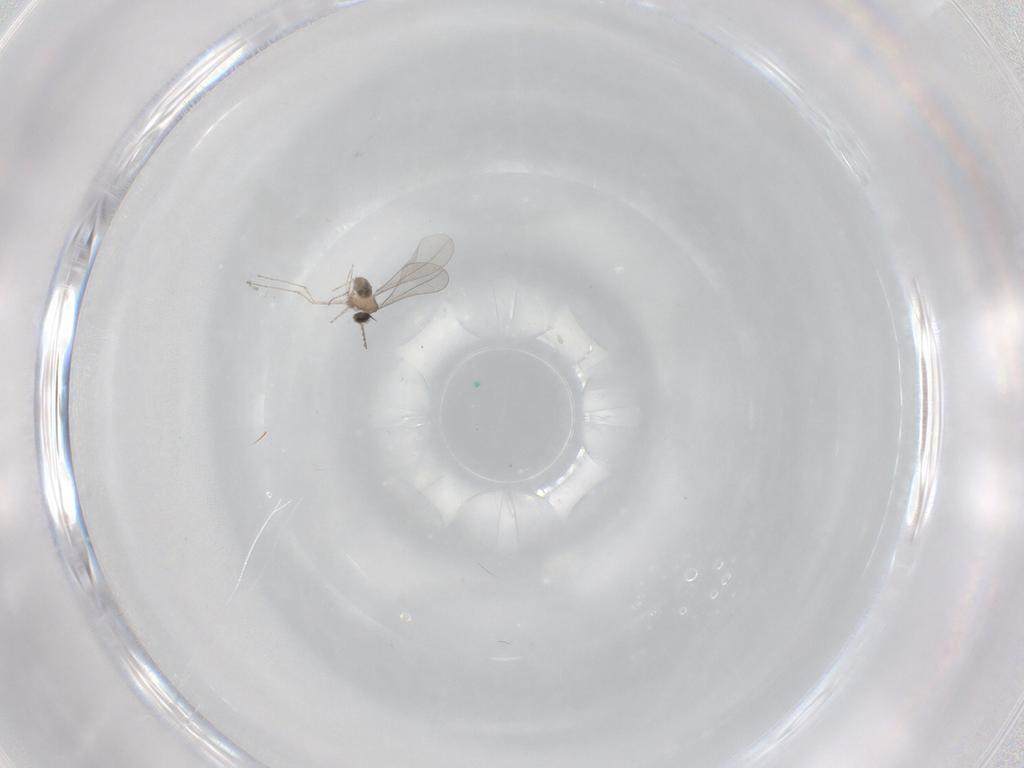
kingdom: Animalia
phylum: Arthropoda
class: Insecta
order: Diptera
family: Cecidomyiidae
